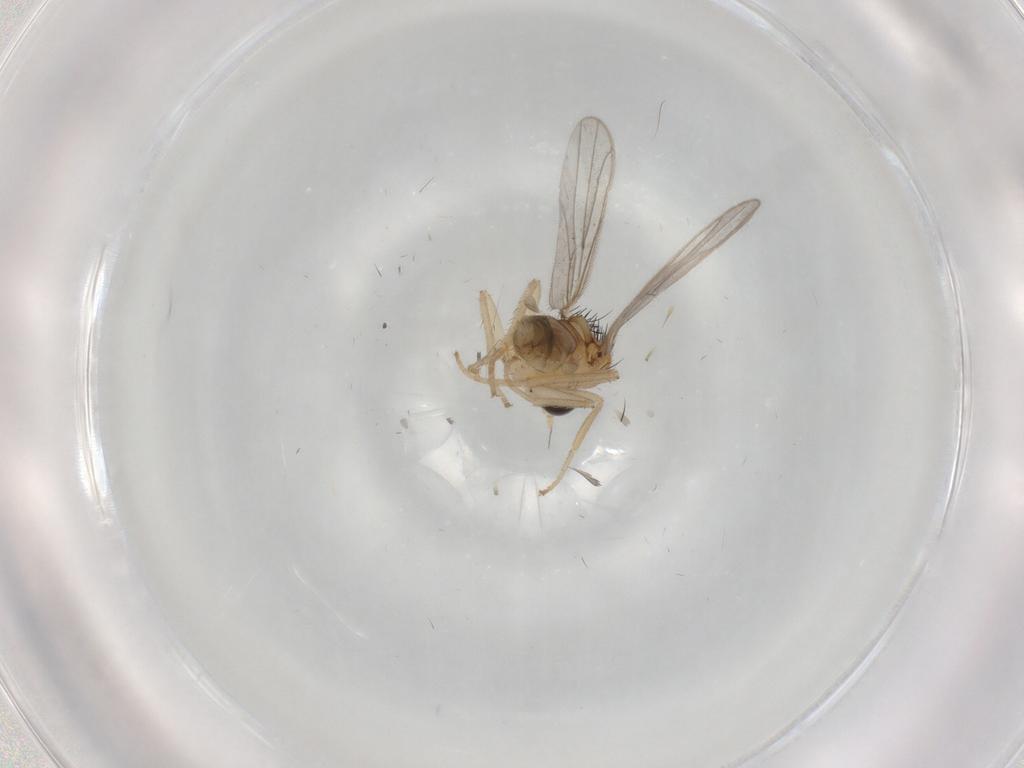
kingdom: Animalia
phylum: Arthropoda
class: Insecta
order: Diptera
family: Hybotidae
